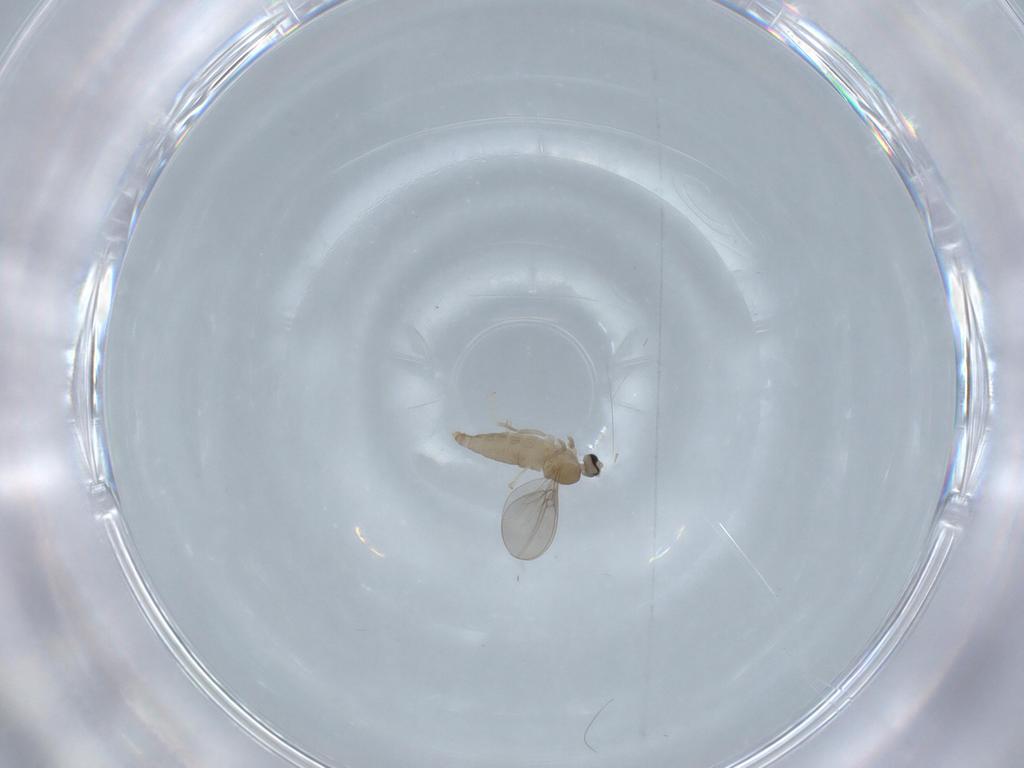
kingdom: Animalia
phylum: Arthropoda
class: Insecta
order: Diptera
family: Cecidomyiidae
